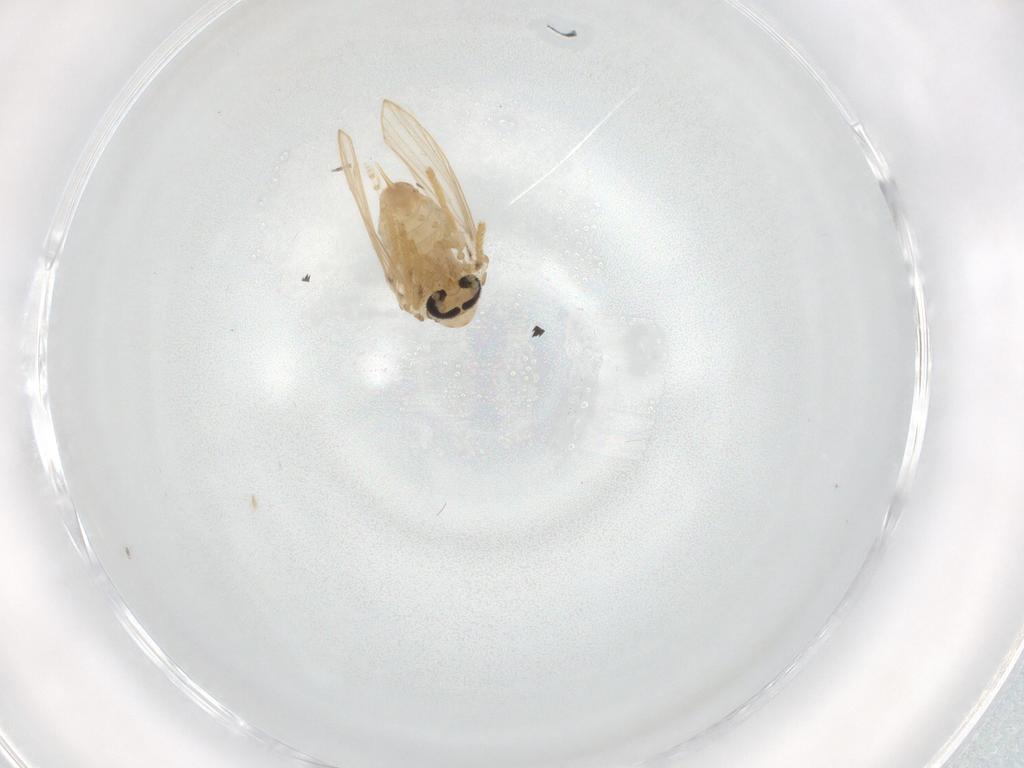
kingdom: Animalia
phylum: Arthropoda
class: Insecta
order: Diptera
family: Psychodidae
